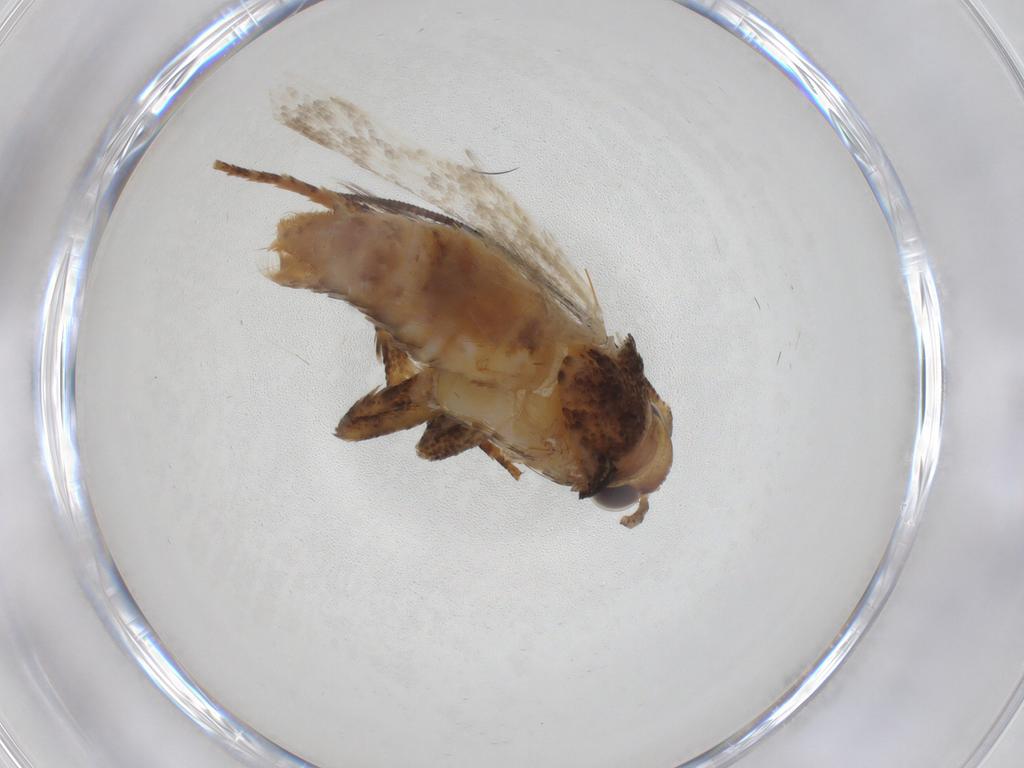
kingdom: Animalia
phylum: Arthropoda
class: Insecta
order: Lepidoptera
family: Gelechiidae
